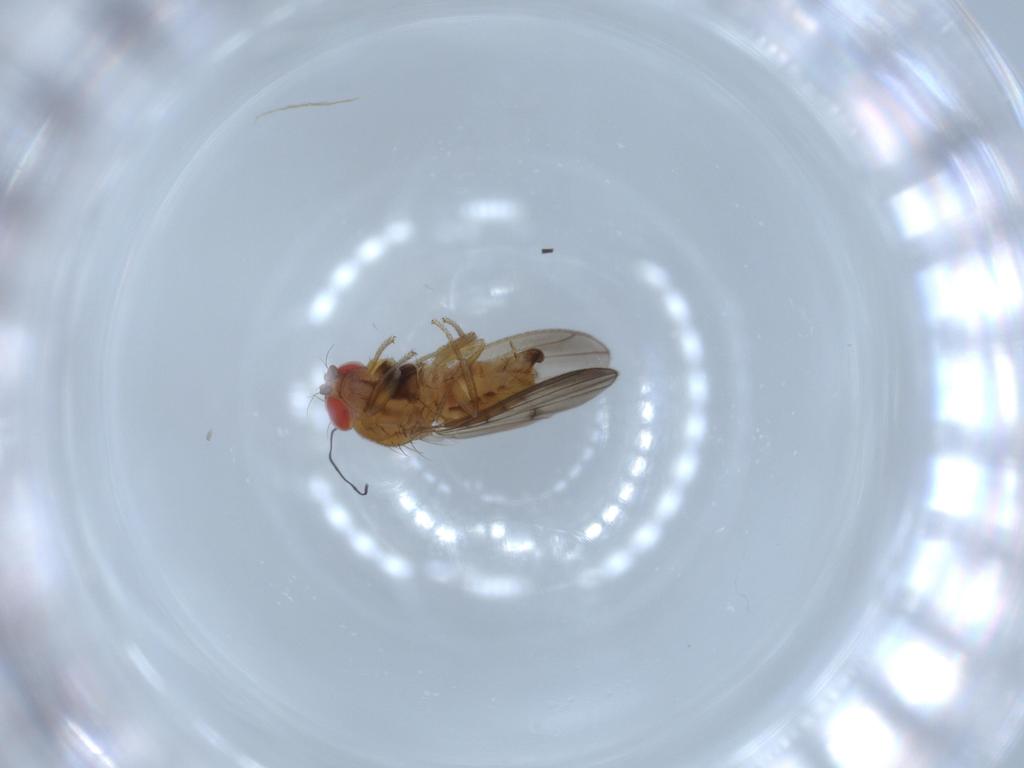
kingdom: Animalia
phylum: Arthropoda
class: Insecta
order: Diptera
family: Drosophilidae
